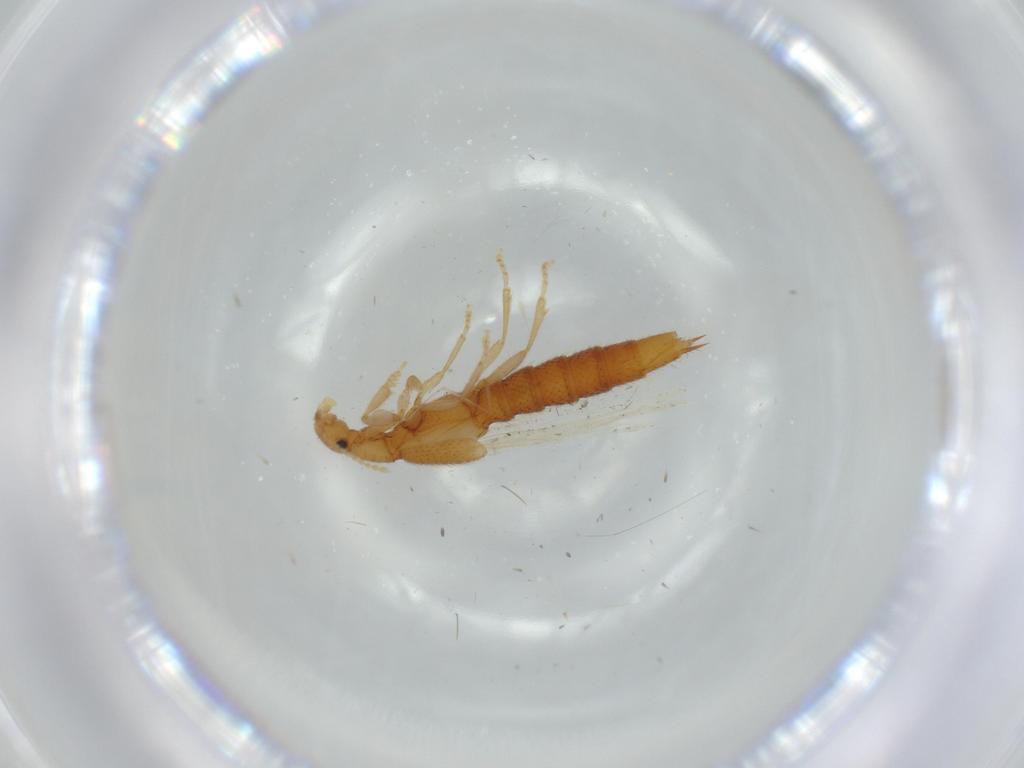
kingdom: Animalia
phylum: Arthropoda
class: Insecta
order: Coleoptera
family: Staphylinidae
